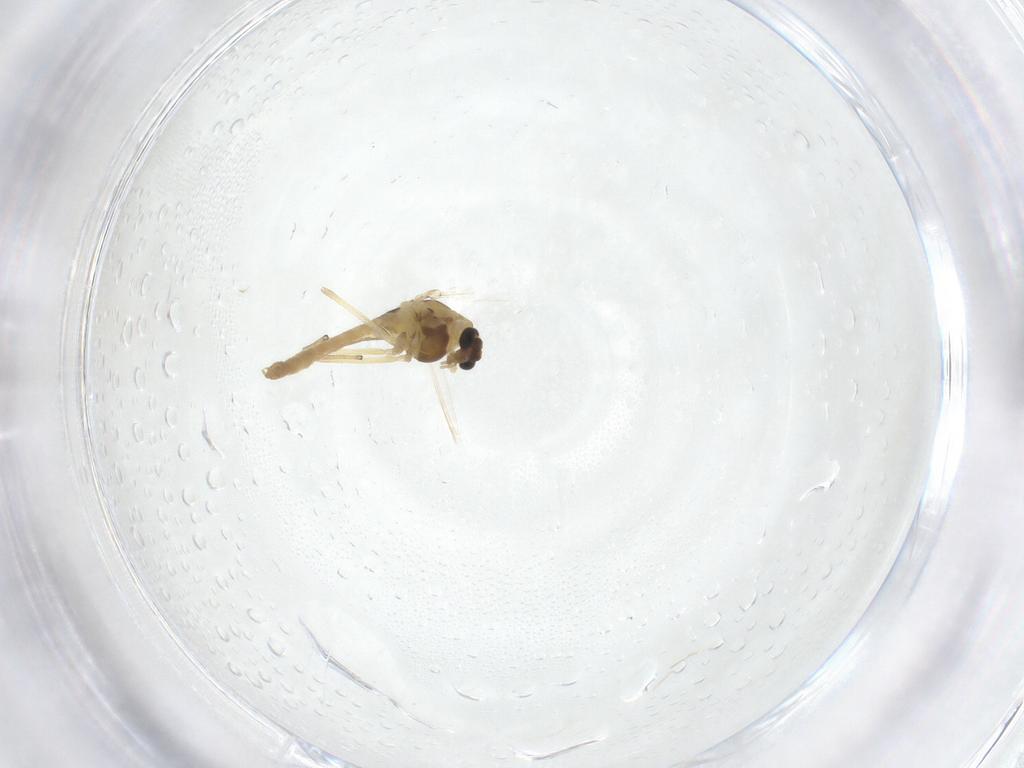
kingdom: Animalia
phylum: Arthropoda
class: Insecta
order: Diptera
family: Chironomidae
